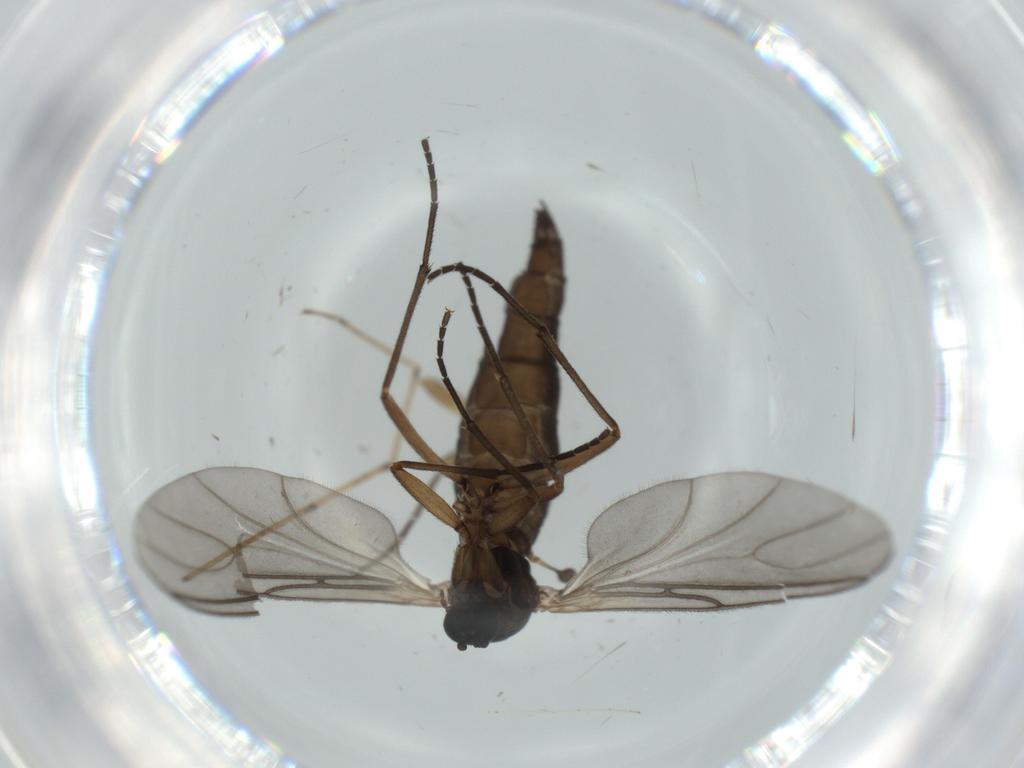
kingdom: Animalia
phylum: Arthropoda
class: Insecta
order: Diptera
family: Sciaridae
